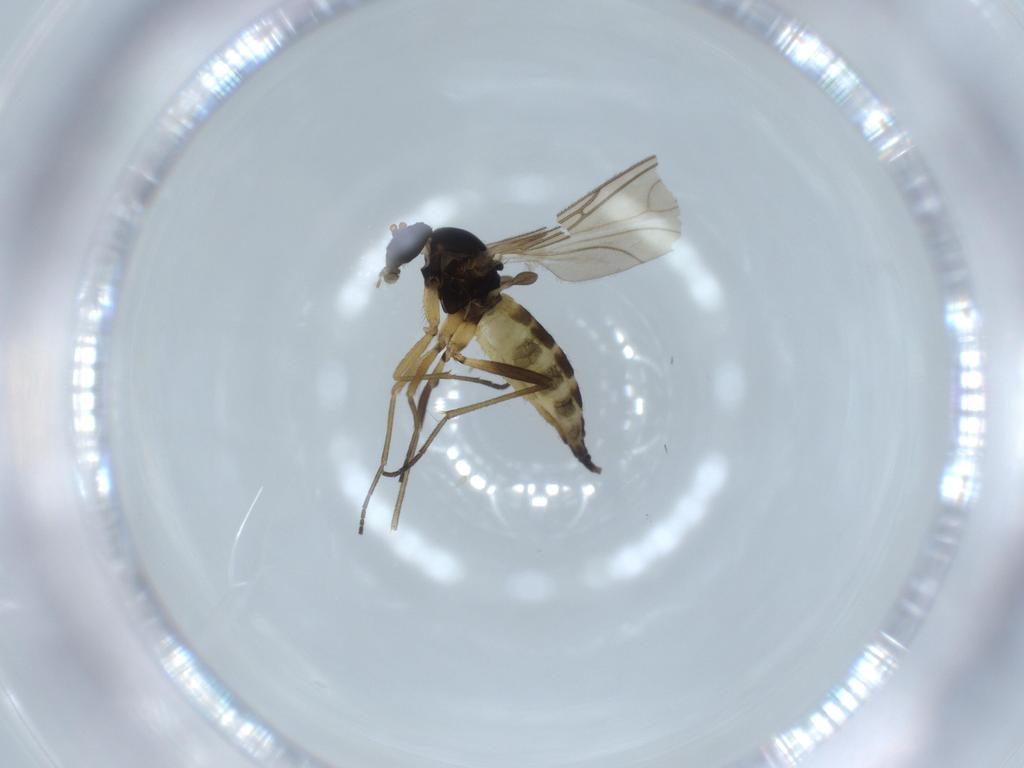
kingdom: Animalia
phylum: Arthropoda
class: Insecta
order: Diptera
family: Sciaridae
